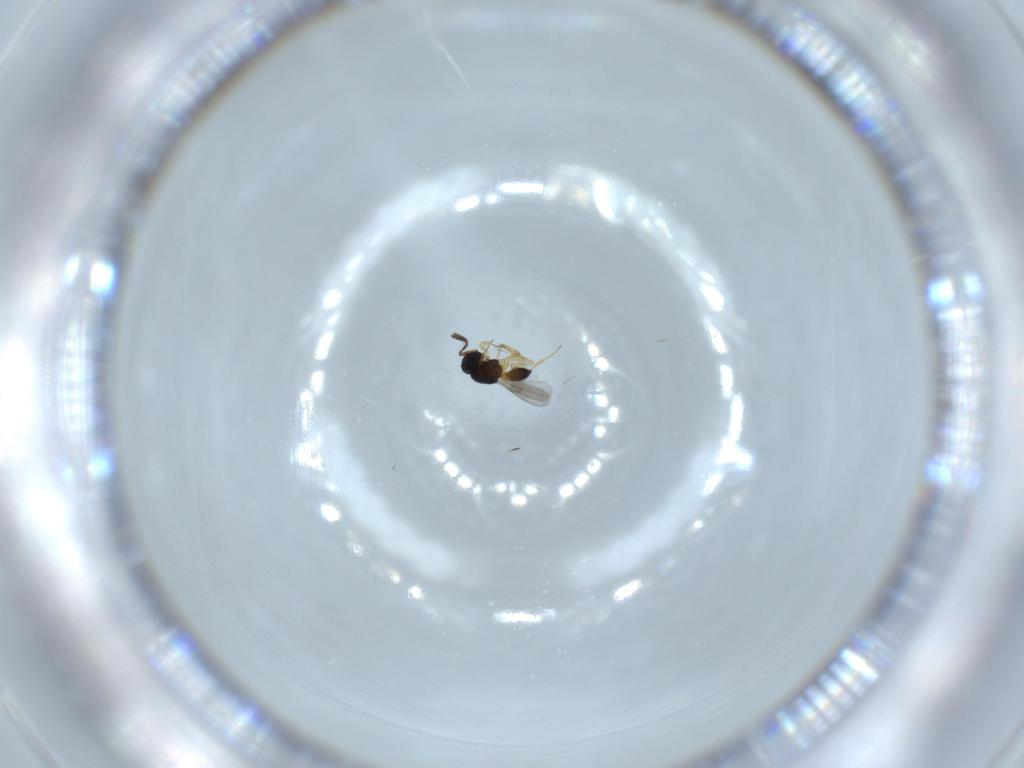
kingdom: Animalia
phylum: Arthropoda
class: Insecta
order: Hymenoptera
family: Scelionidae
